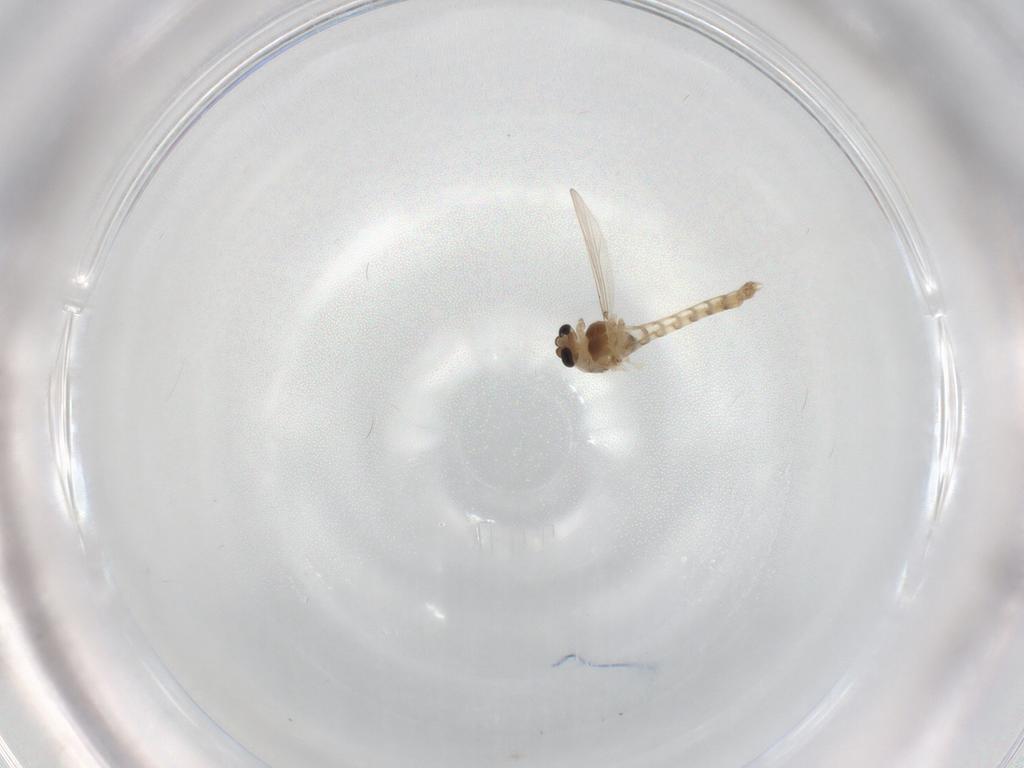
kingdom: Animalia
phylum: Arthropoda
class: Insecta
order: Diptera
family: Chironomidae
